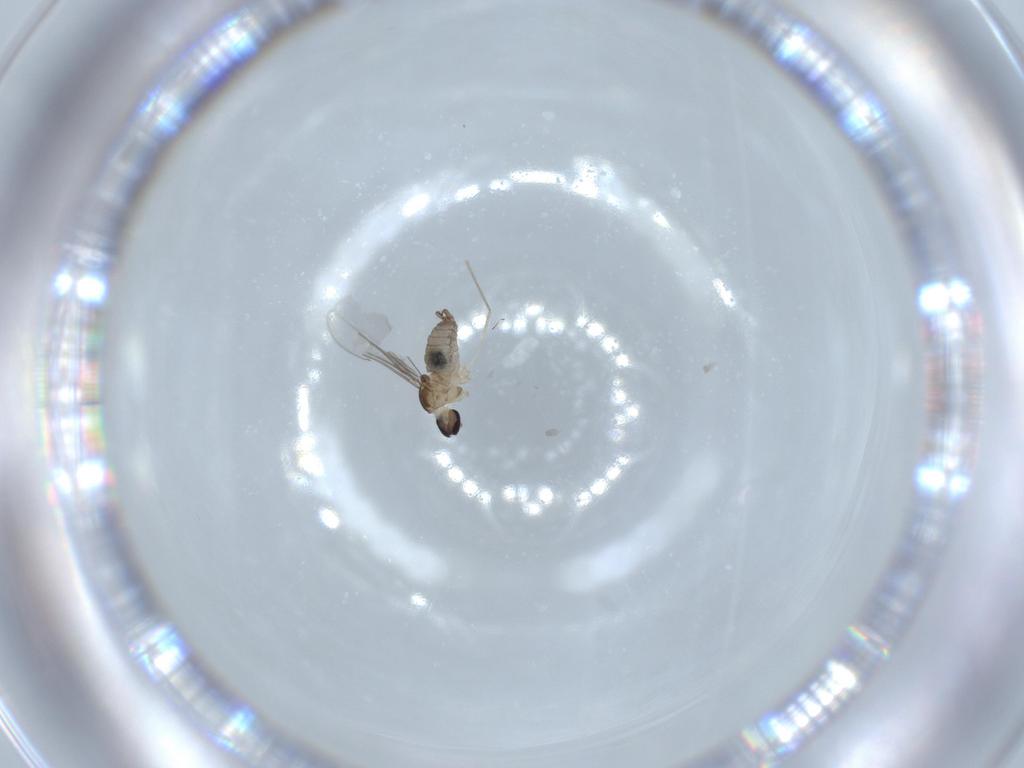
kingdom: Animalia
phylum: Arthropoda
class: Insecta
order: Diptera
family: Cecidomyiidae
